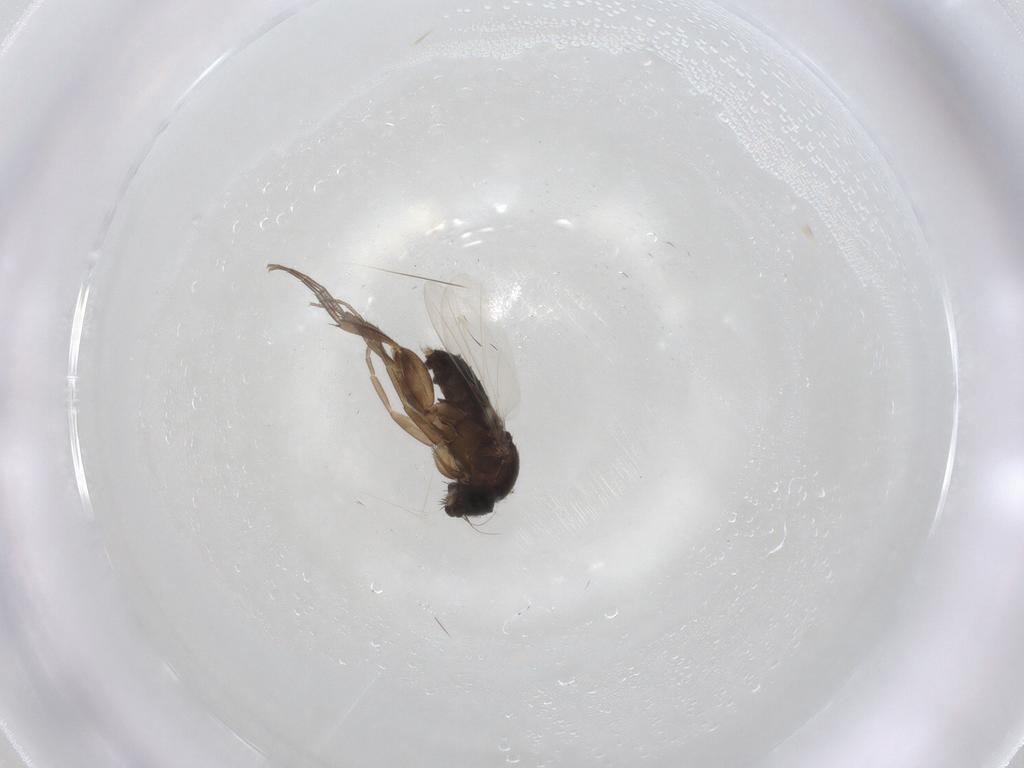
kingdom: Animalia
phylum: Arthropoda
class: Insecta
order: Diptera
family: Phoridae
